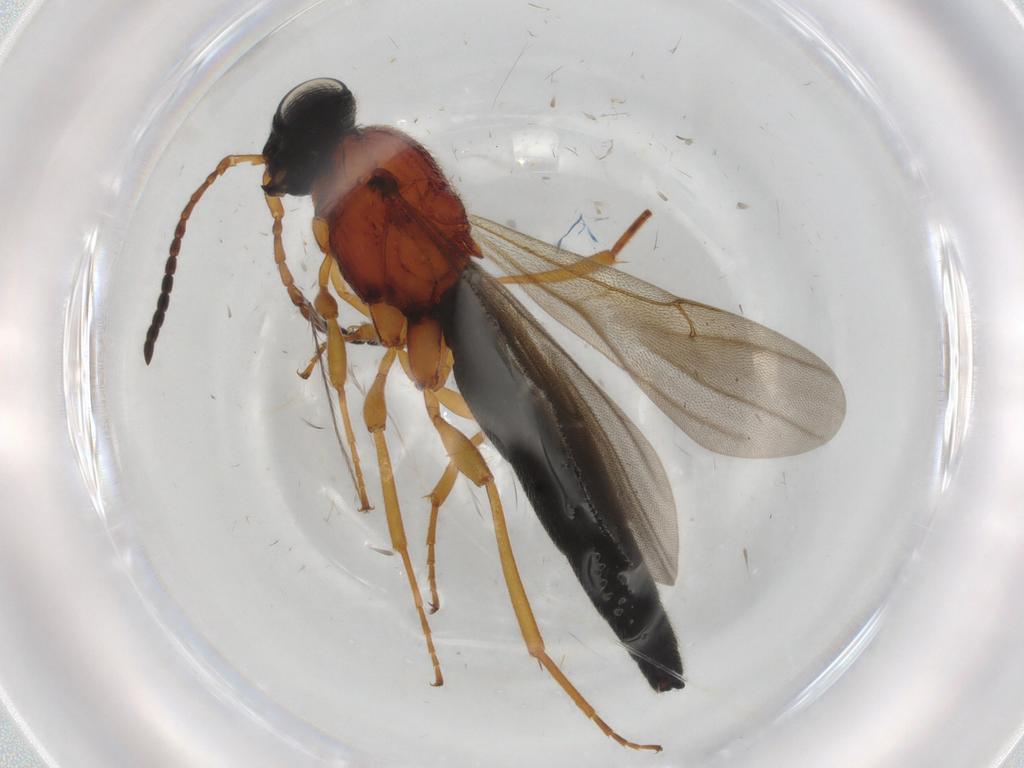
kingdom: Animalia
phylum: Arthropoda
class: Insecta
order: Hymenoptera
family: Scelionidae
